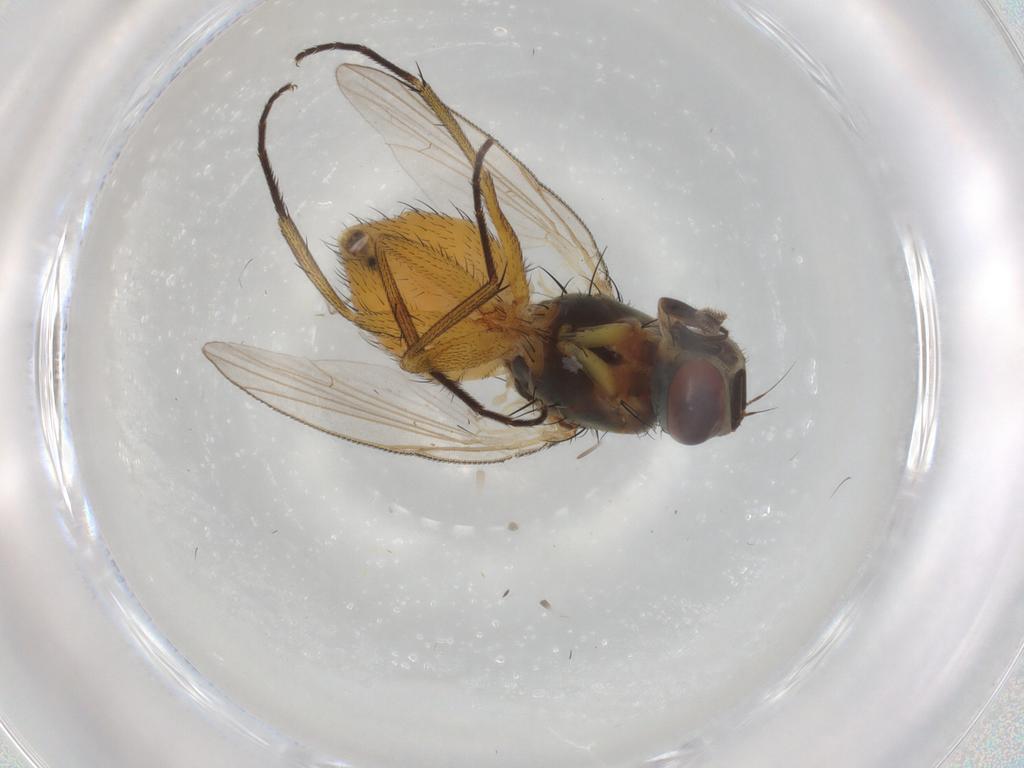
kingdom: Animalia
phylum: Arthropoda
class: Insecta
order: Diptera
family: Muscidae
